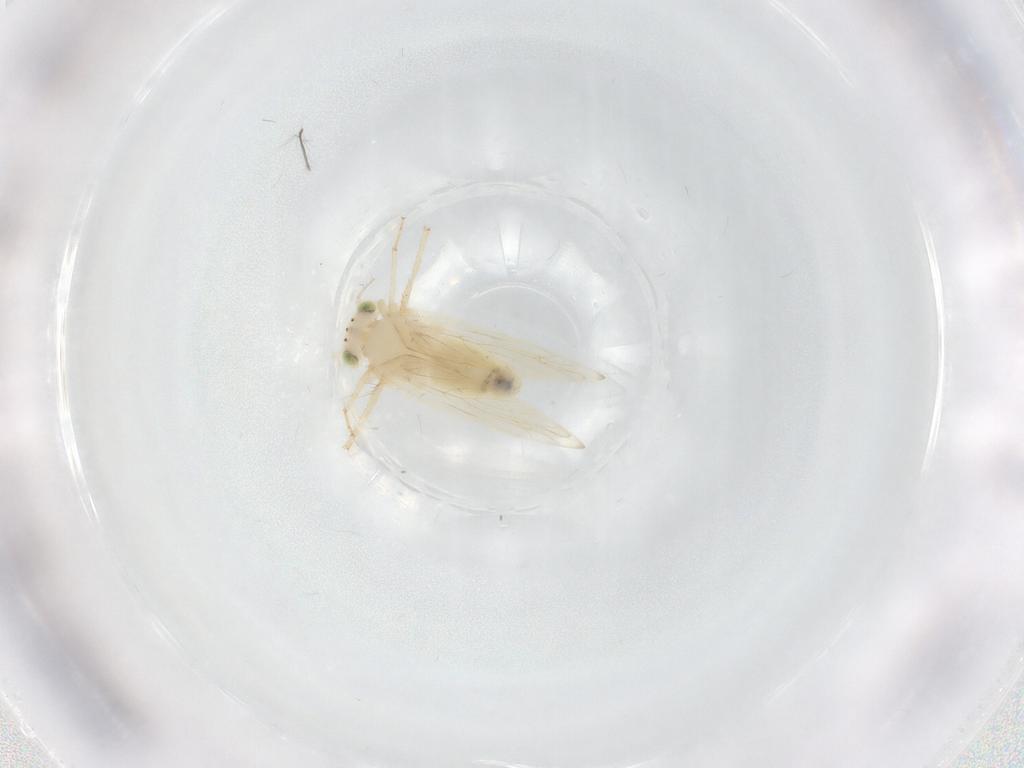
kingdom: Animalia
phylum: Arthropoda
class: Insecta
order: Psocodea
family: Lepidopsocidae
